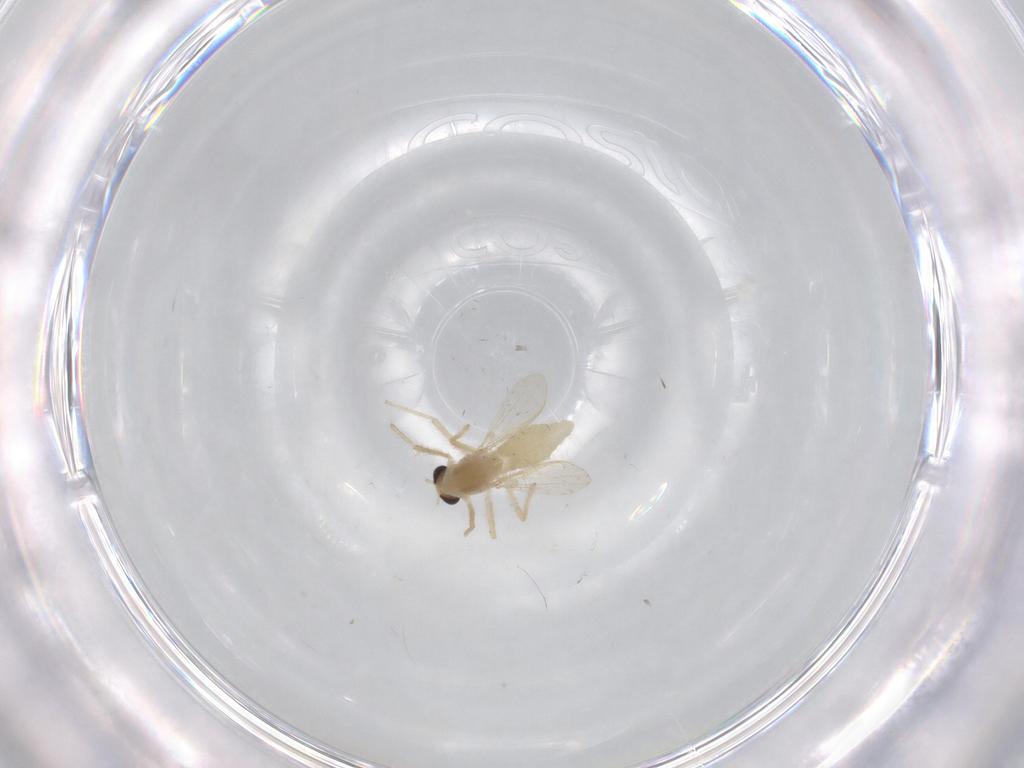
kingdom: Animalia
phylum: Arthropoda
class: Insecta
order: Diptera
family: Chironomidae
